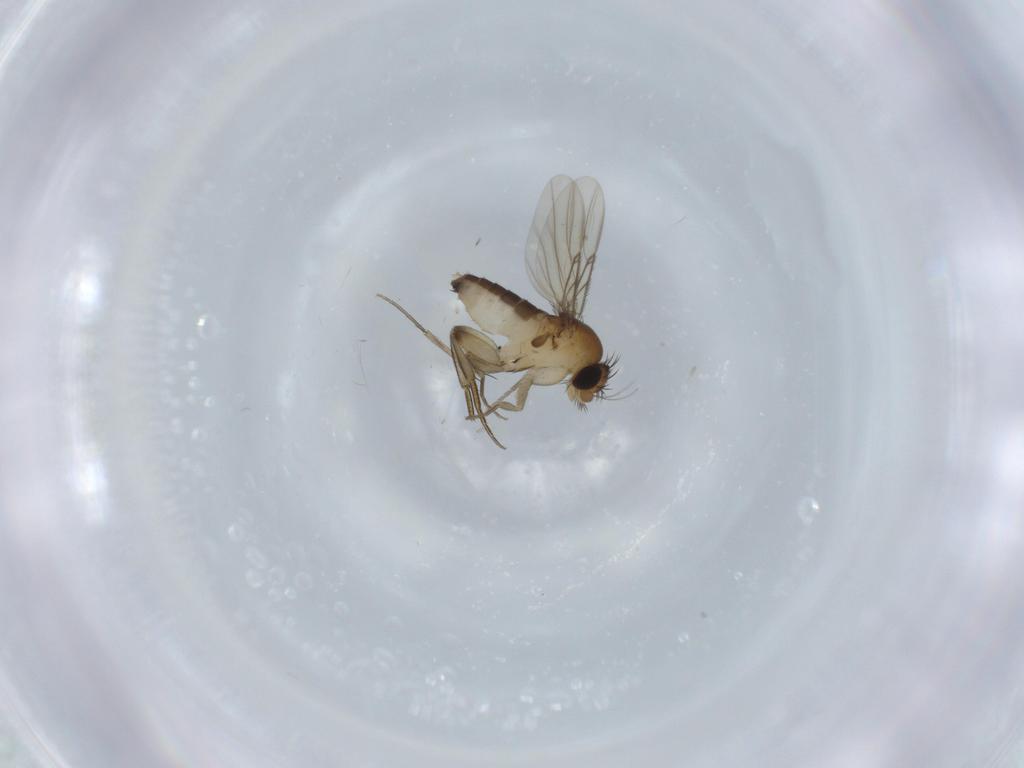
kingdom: Animalia
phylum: Arthropoda
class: Insecta
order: Diptera
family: Phoridae
